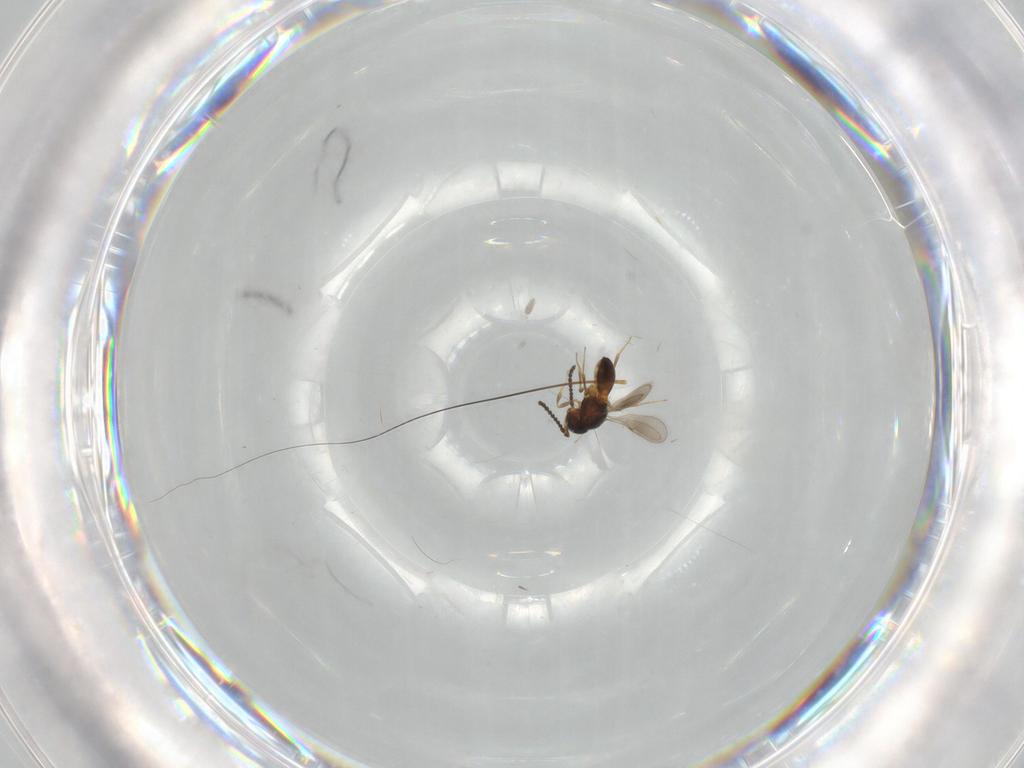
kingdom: Animalia
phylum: Arthropoda
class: Insecta
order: Hymenoptera
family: Scelionidae
